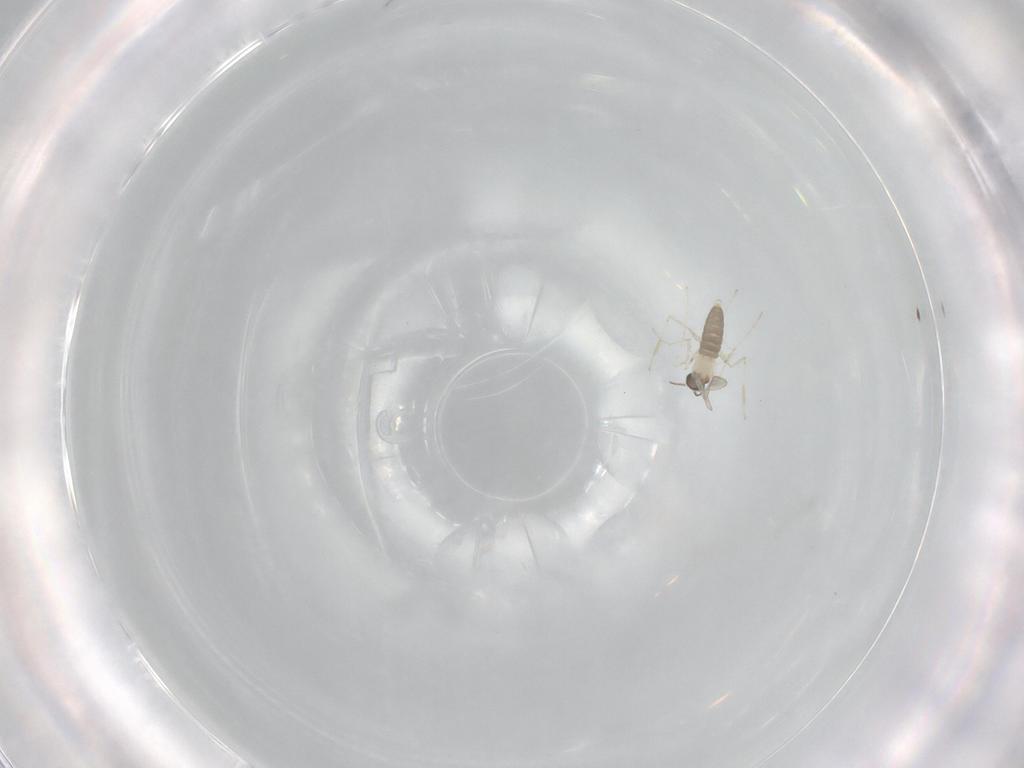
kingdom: Animalia
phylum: Arthropoda
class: Insecta
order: Diptera
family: Cecidomyiidae
